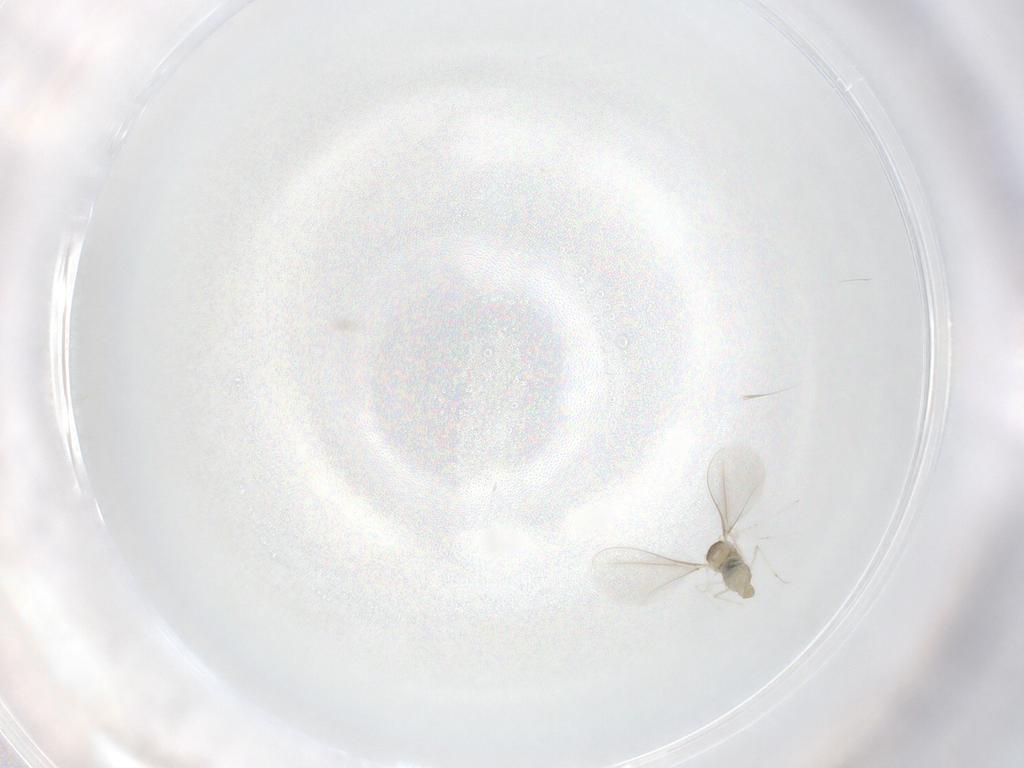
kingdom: Animalia
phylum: Arthropoda
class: Insecta
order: Diptera
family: Cecidomyiidae
